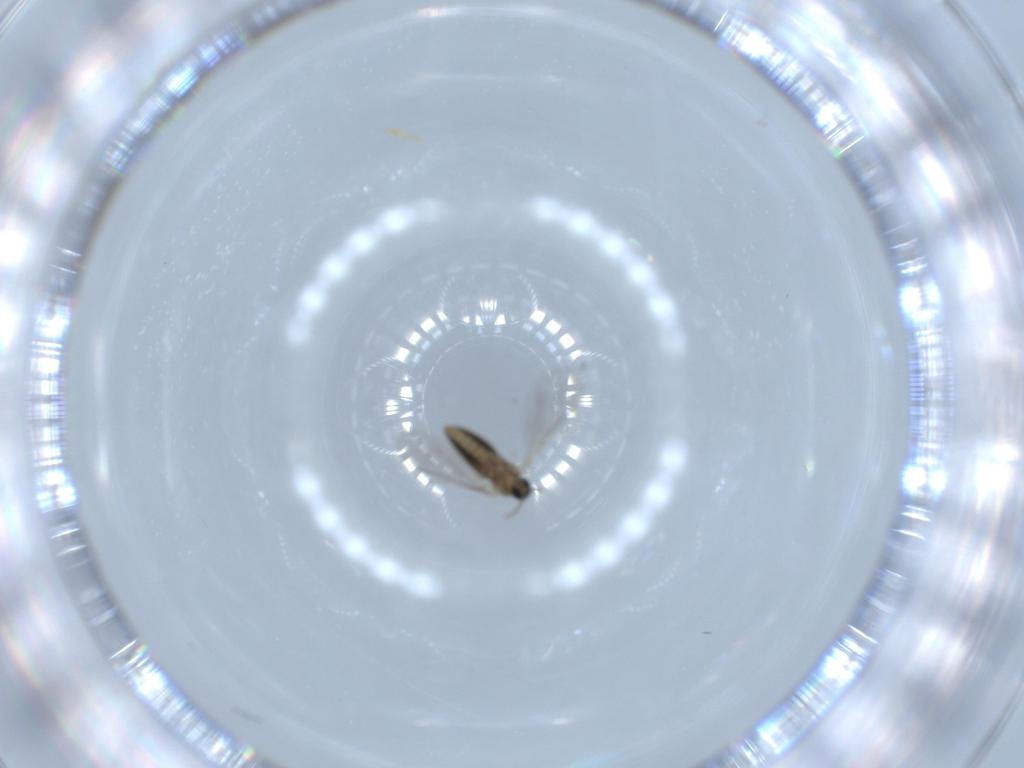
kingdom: Animalia
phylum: Arthropoda
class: Insecta
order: Diptera
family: Cecidomyiidae
